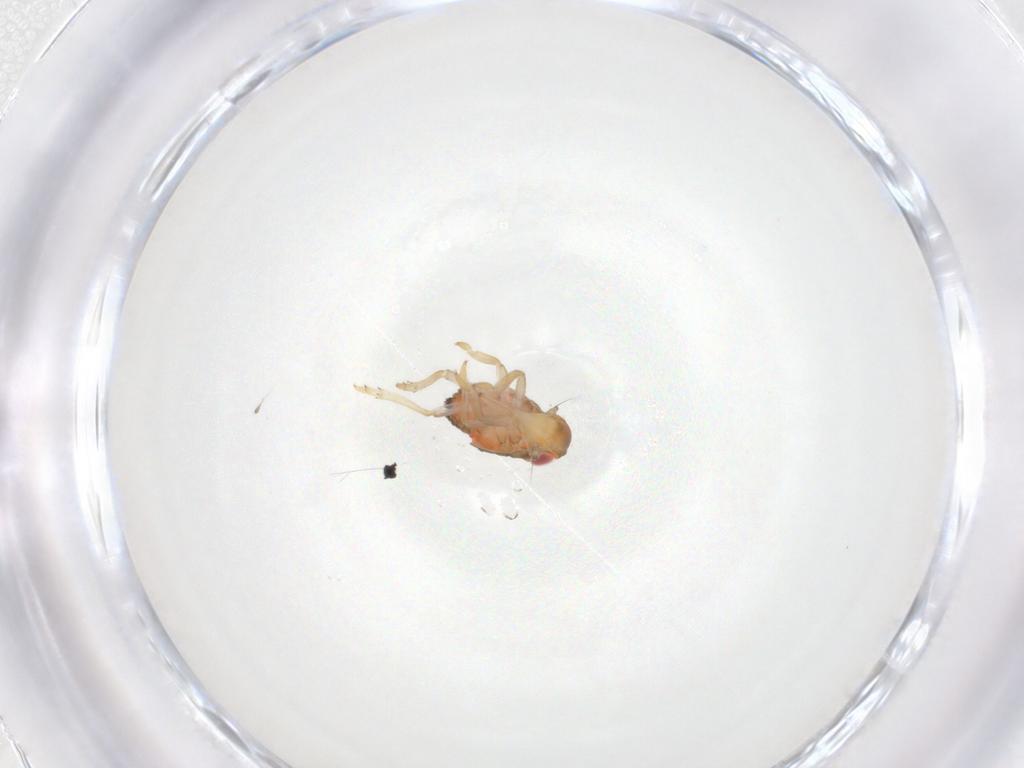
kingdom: Animalia
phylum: Arthropoda
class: Insecta
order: Hemiptera
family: Issidae
